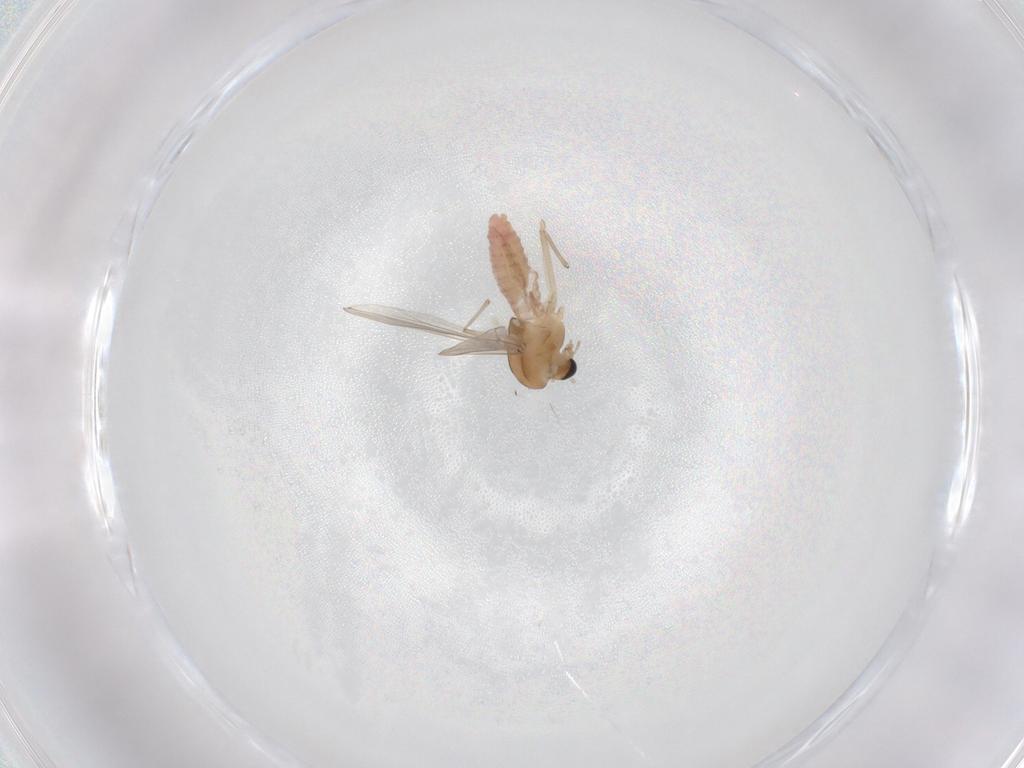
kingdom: Animalia
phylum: Arthropoda
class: Insecta
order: Diptera
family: Chironomidae
